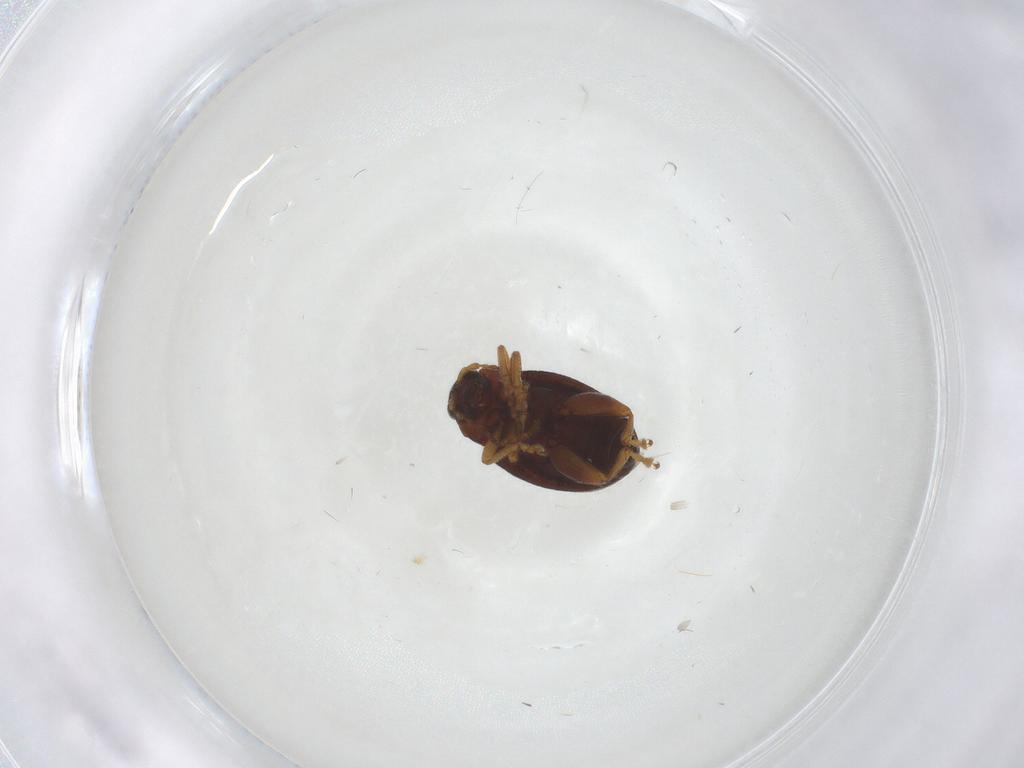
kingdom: Animalia
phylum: Arthropoda
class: Insecta
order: Coleoptera
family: Chrysomelidae
